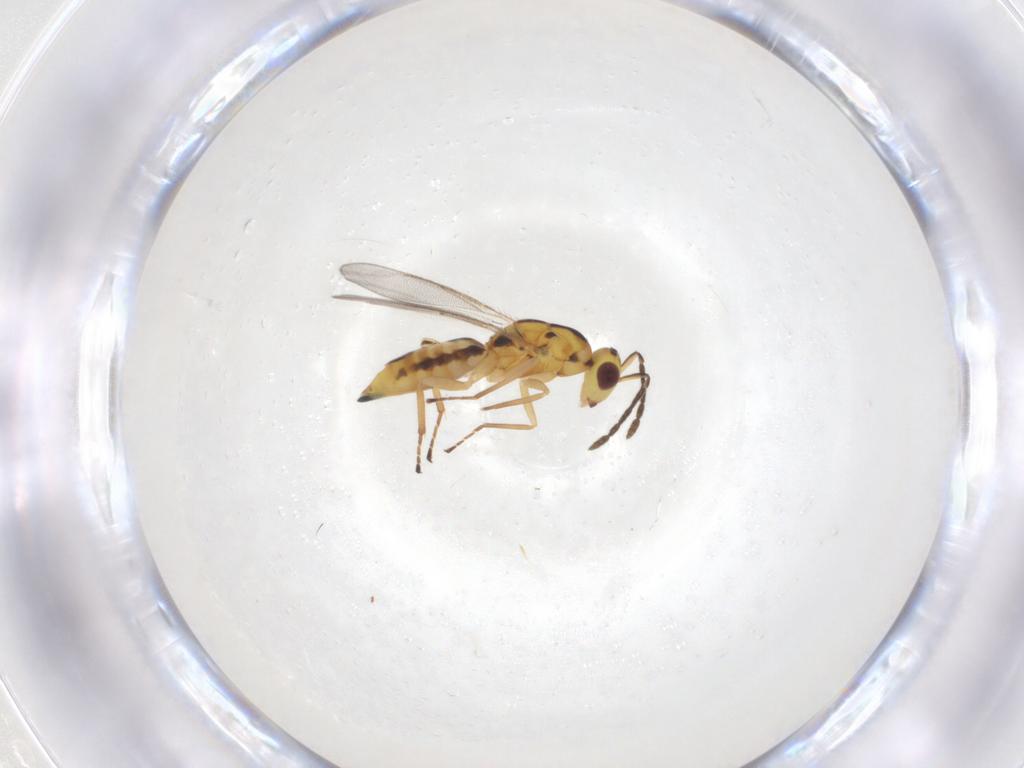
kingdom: Animalia
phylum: Arthropoda
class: Insecta
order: Hymenoptera
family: Eulophidae
